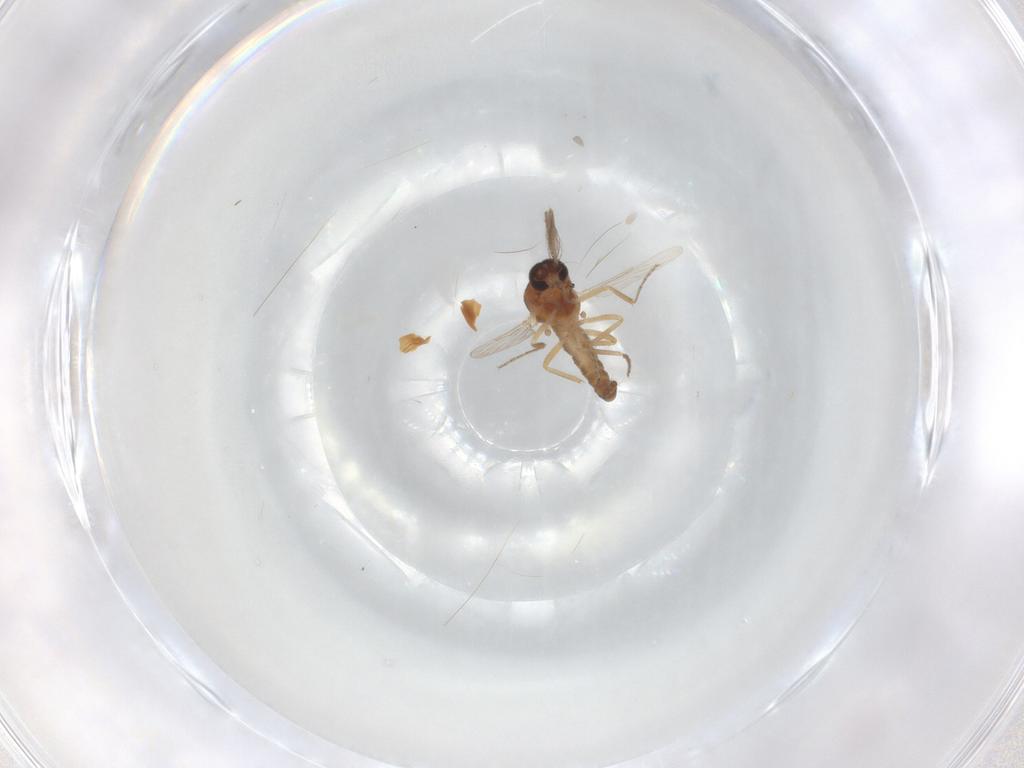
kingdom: Animalia
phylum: Arthropoda
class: Insecta
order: Diptera
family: Ceratopogonidae
